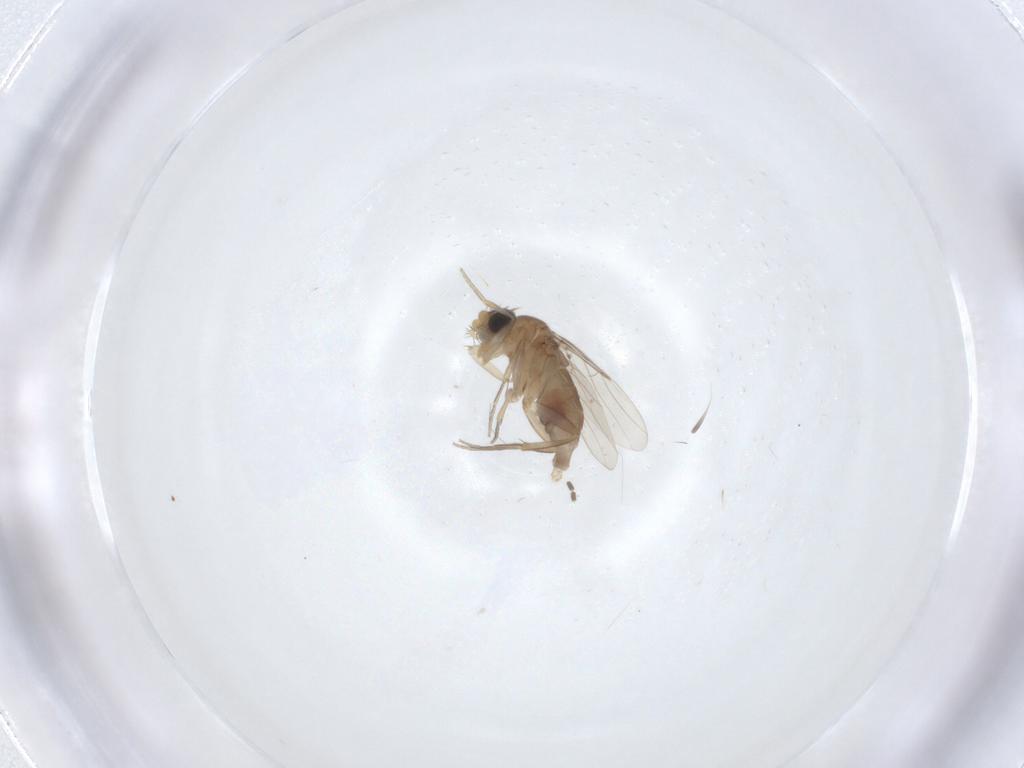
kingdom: Animalia
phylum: Arthropoda
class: Insecta
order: Diptera
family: Phoridae
